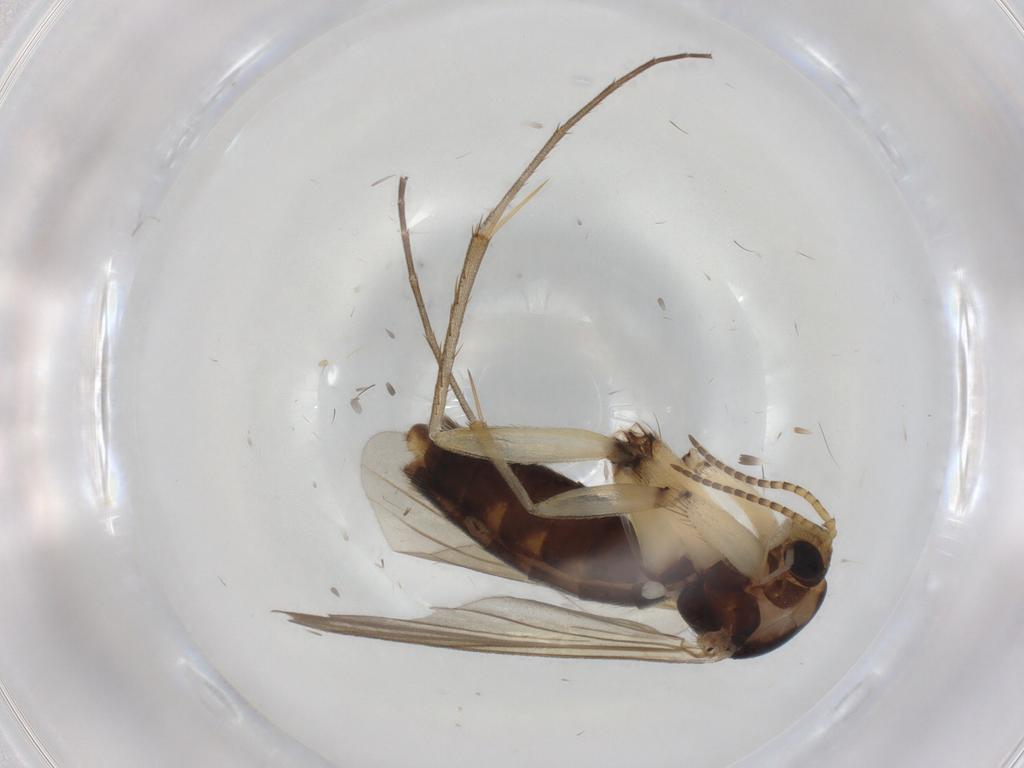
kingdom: Animalia
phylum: Arthropoda
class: Insecta
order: Diptera
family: Mycetophilidae
